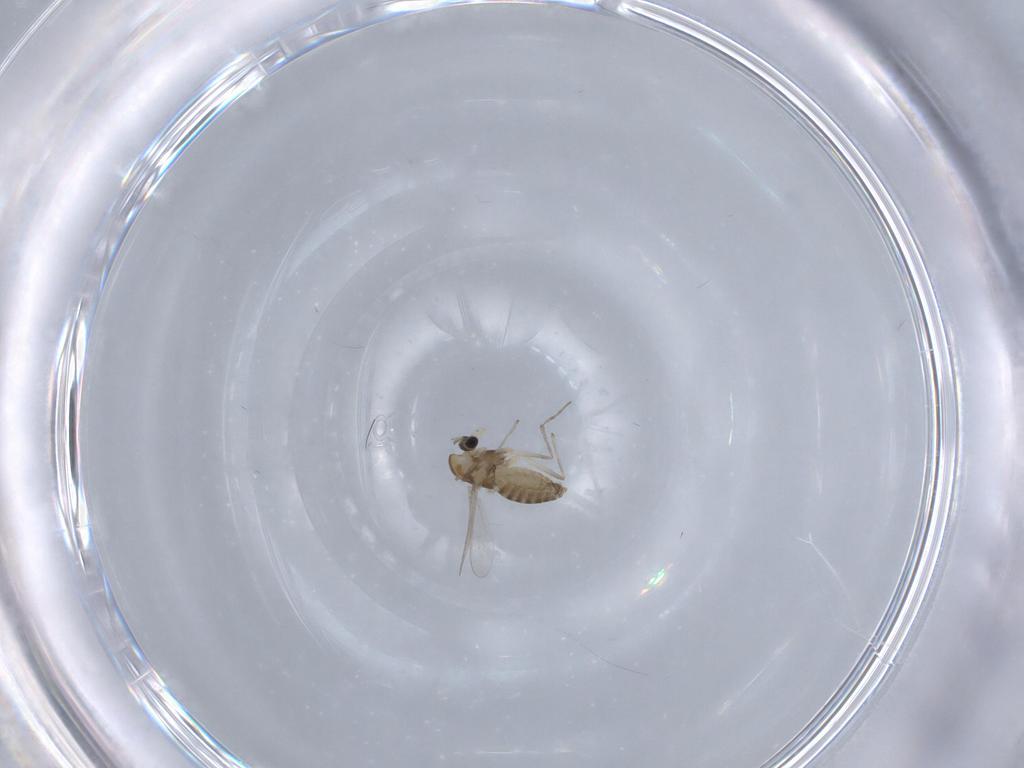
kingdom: Animalia
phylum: Arthropoda
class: Insecta
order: Diptera
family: Chironomidae
